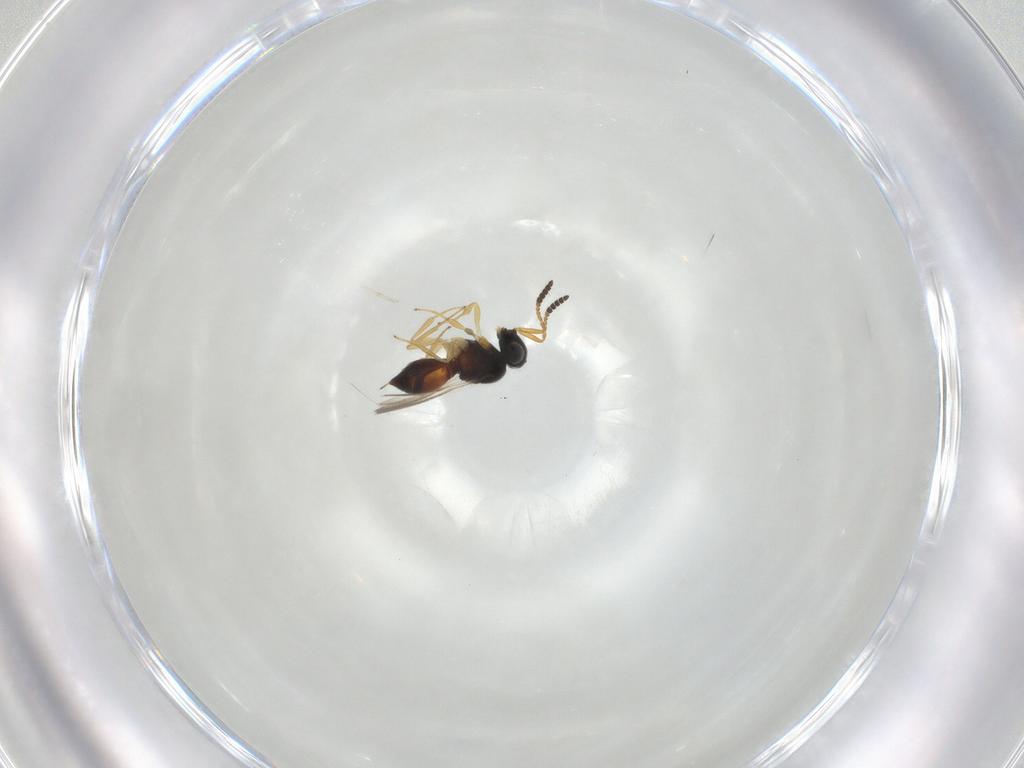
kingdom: Animalia
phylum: Arthropoda
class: Insecta
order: Hymenoptera
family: Scelionidae
